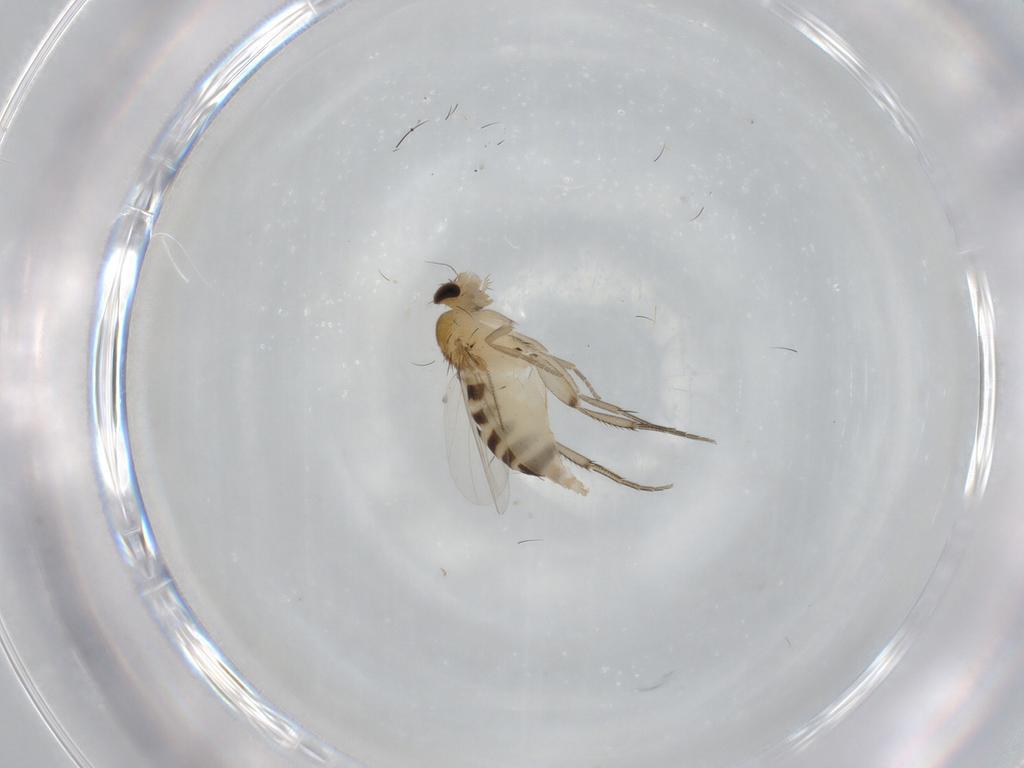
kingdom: Animalia
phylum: Arthropoda
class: Insecta
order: Diptera
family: Phoridae
